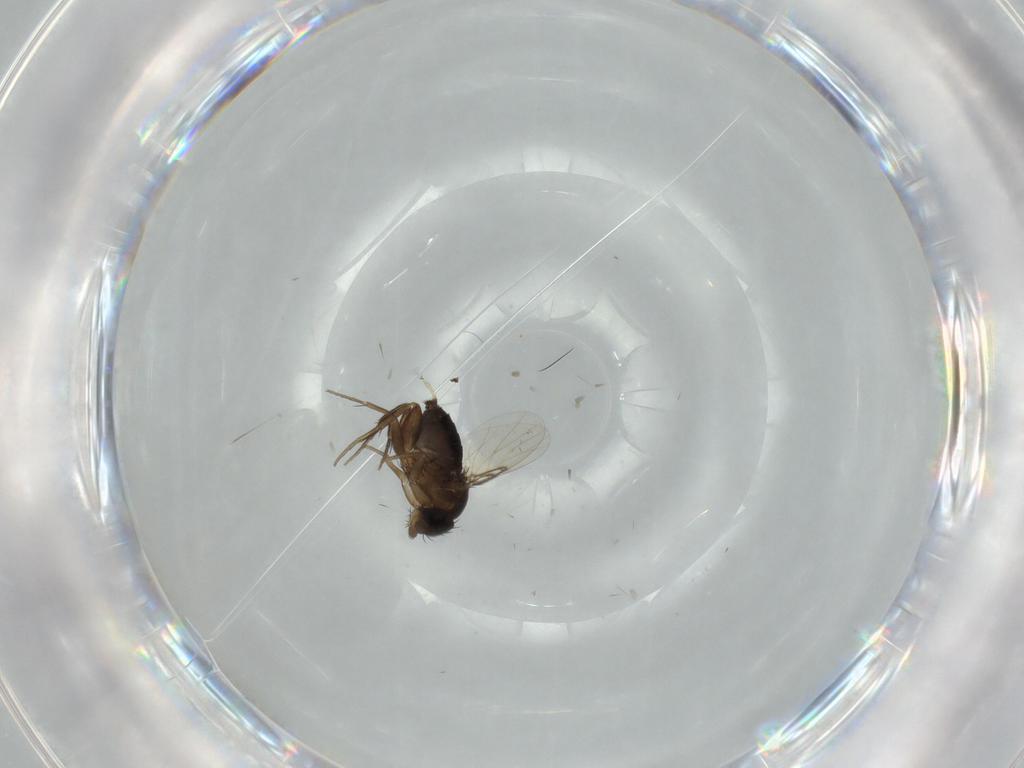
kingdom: Animalia
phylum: Arthropoda
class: Insecta
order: Diptera
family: Phoridae
